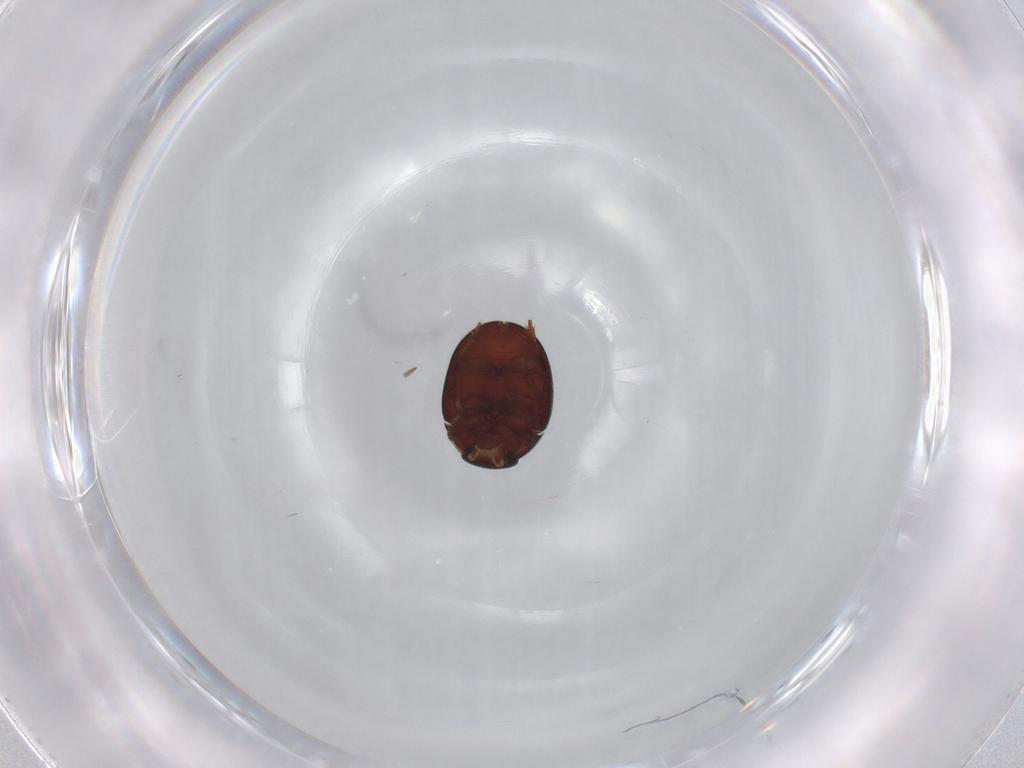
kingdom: Animalia
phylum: Arthropoda
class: Insecta
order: Coleoptera
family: Hydrophilidae
